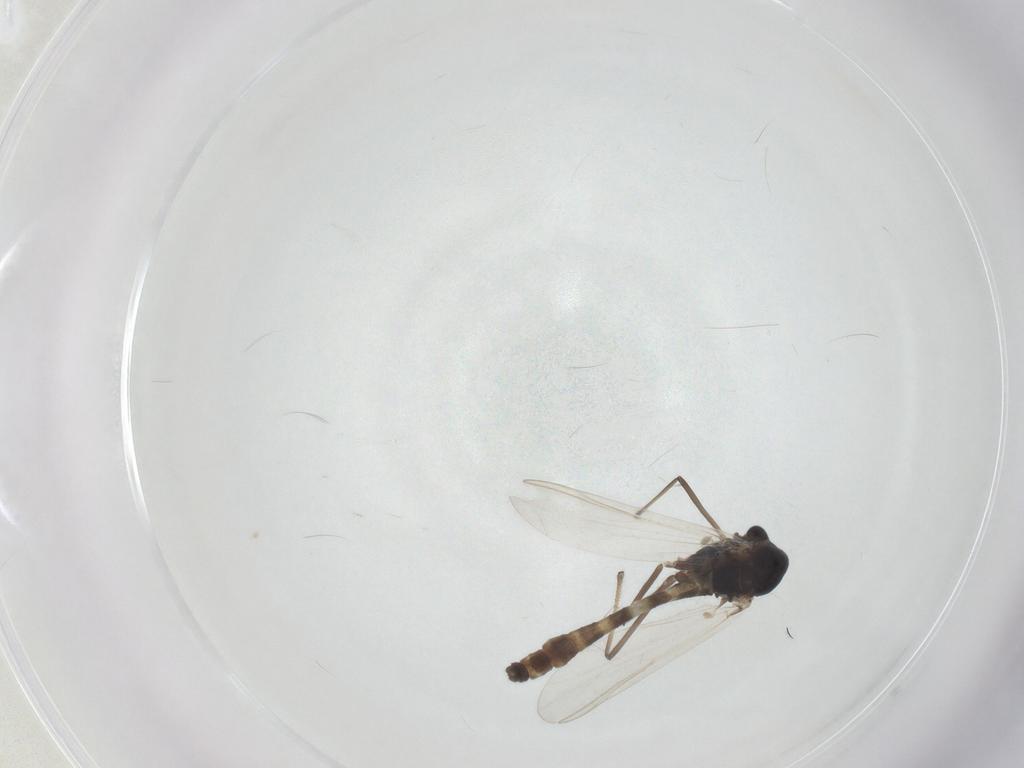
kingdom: Animalia
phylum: Arthropoda
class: Insecta
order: Diptera
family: Chironomidae
